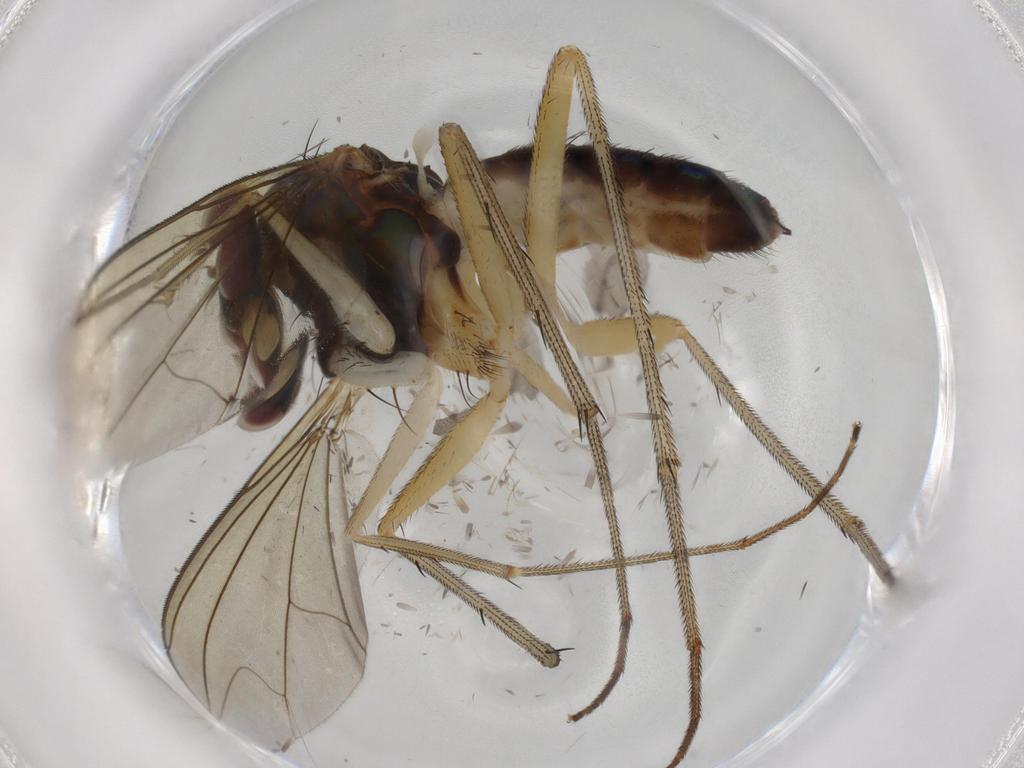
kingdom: Animalia
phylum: Arthropoda
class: Insecta
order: Diptera
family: Dolichopodidae
